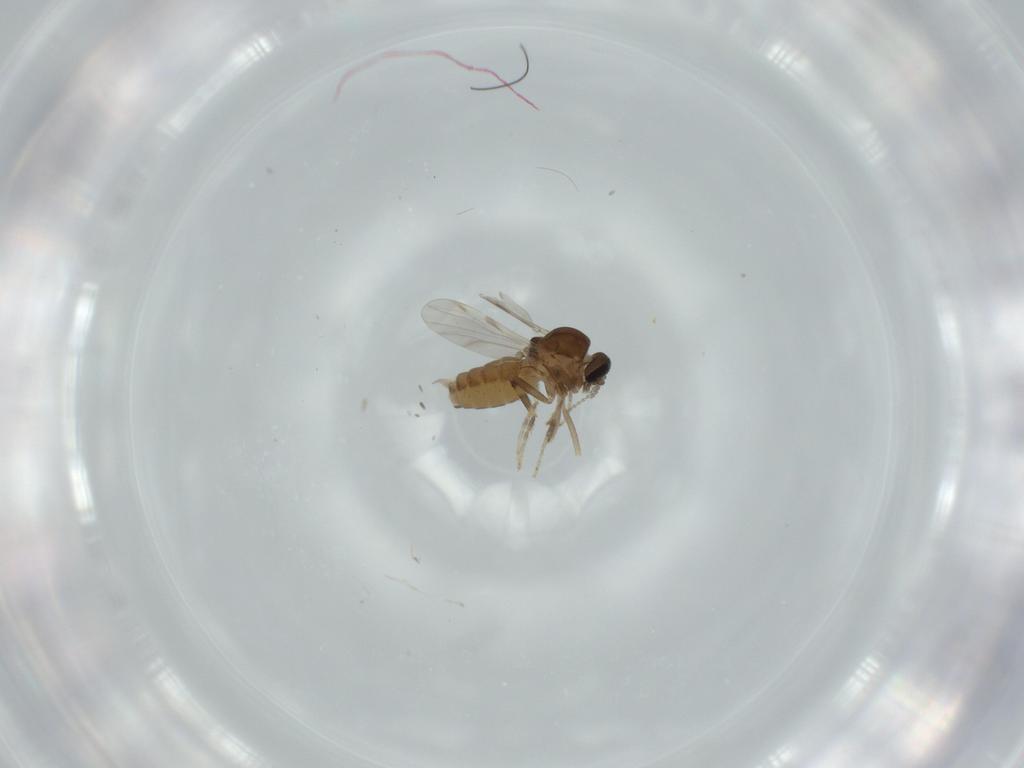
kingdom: Animalia
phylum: Arthropoda
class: Insecta
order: Diptera
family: Ceratopogonidae
